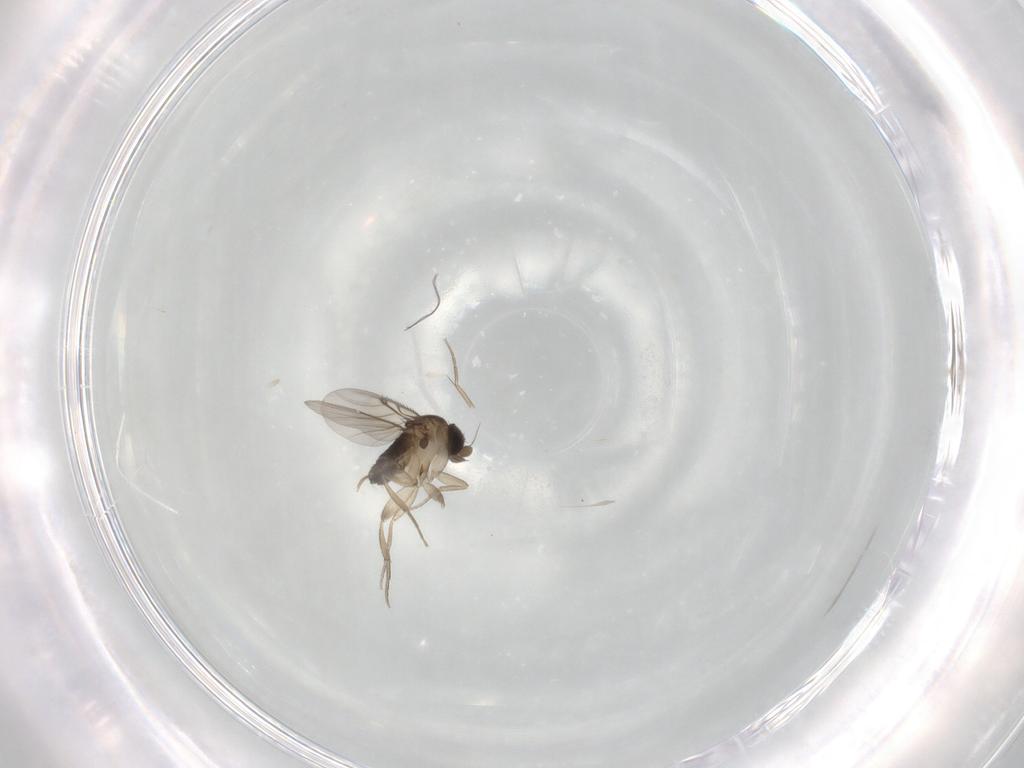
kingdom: Animalia
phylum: Arthropoda
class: Insecta
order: Diptera
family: Phoridae
